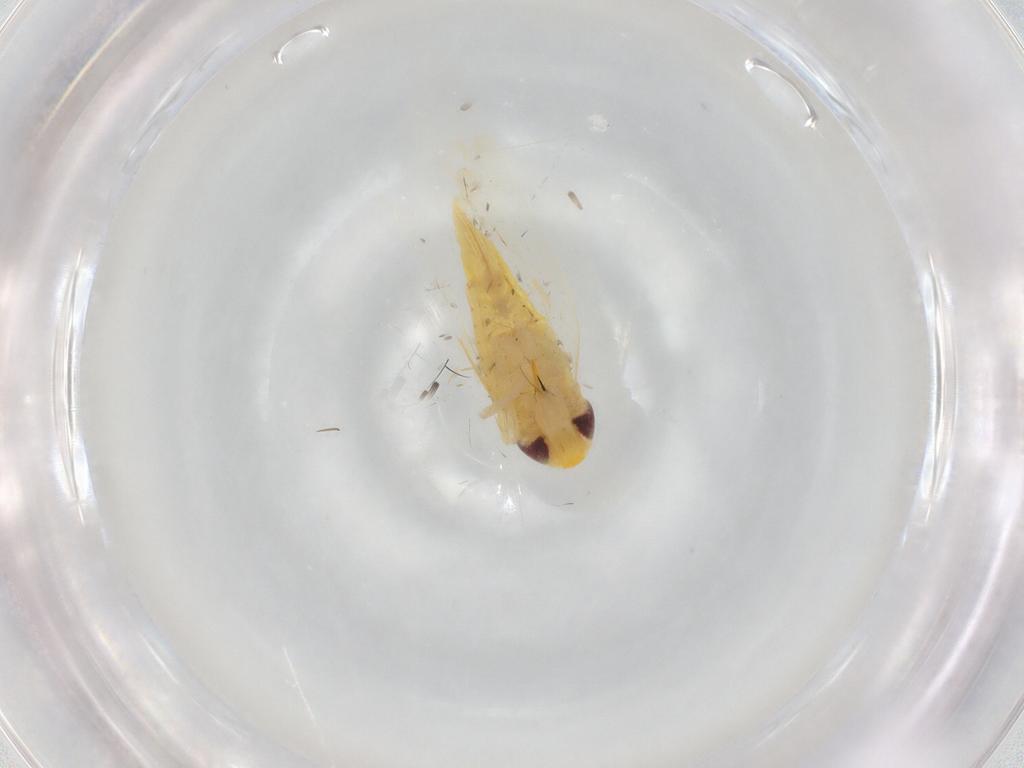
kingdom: Animalia
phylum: Arthropoda
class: Insecta
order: Hemiptera
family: Cicadellidae
